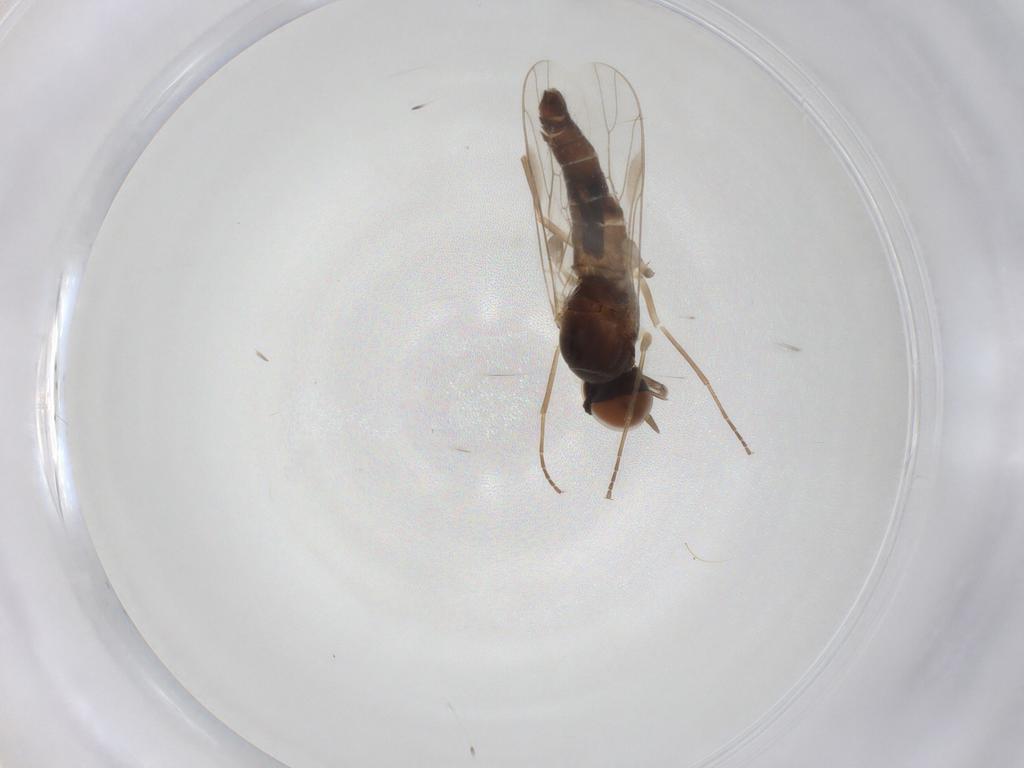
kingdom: Animalia
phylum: Arthropoda
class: Insecta
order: Diptera
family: Scenopinidae
